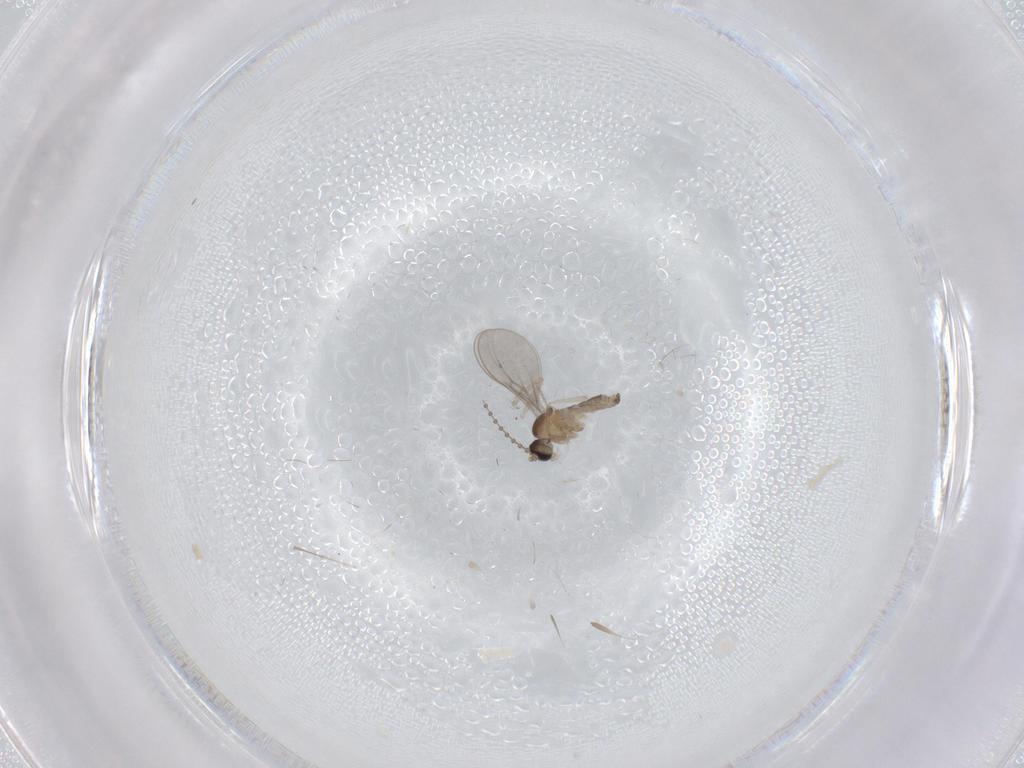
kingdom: Animalia
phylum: Arthropoda
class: Insecta
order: Diptera
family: Cecidomyiidae
